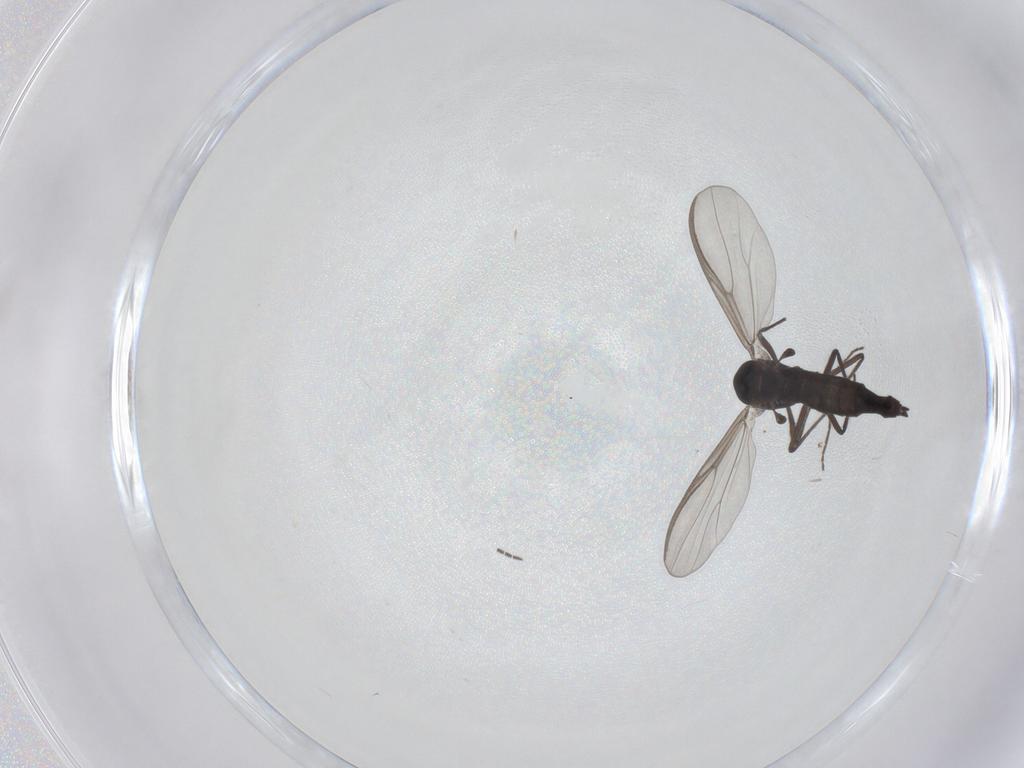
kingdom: Animalia
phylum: Arthropoda
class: Insecta
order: Diptera
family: Chironomidae
